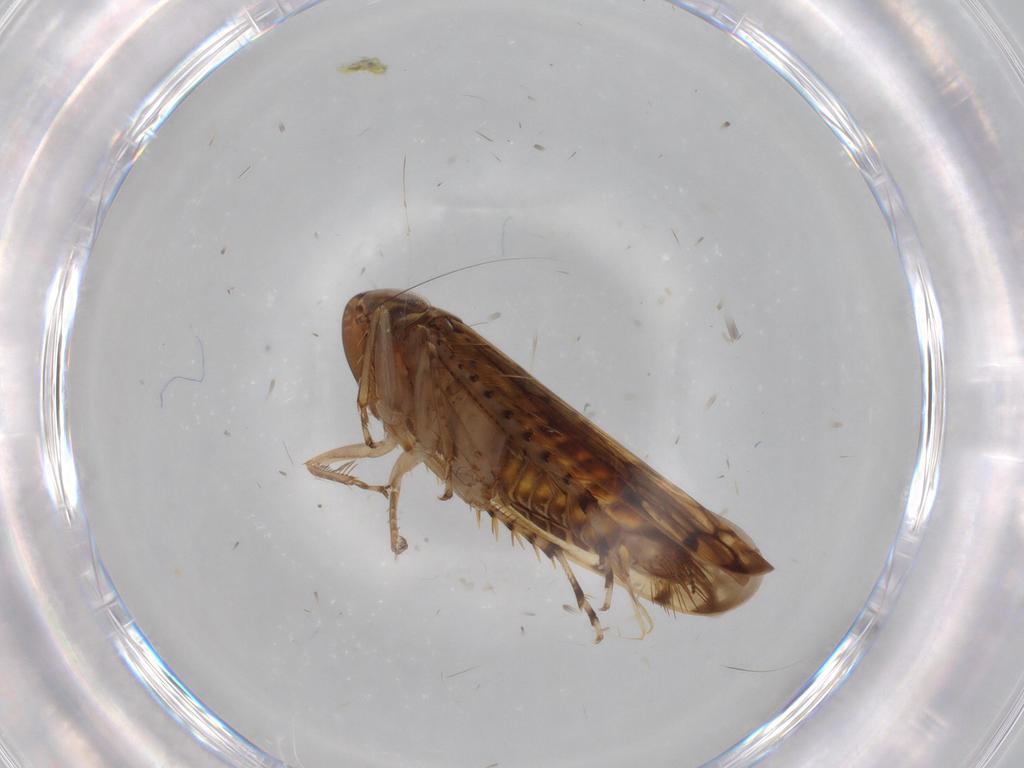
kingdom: Animalia
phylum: Arthropoda
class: Insecta
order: Hemiptera
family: Cicadellidae
